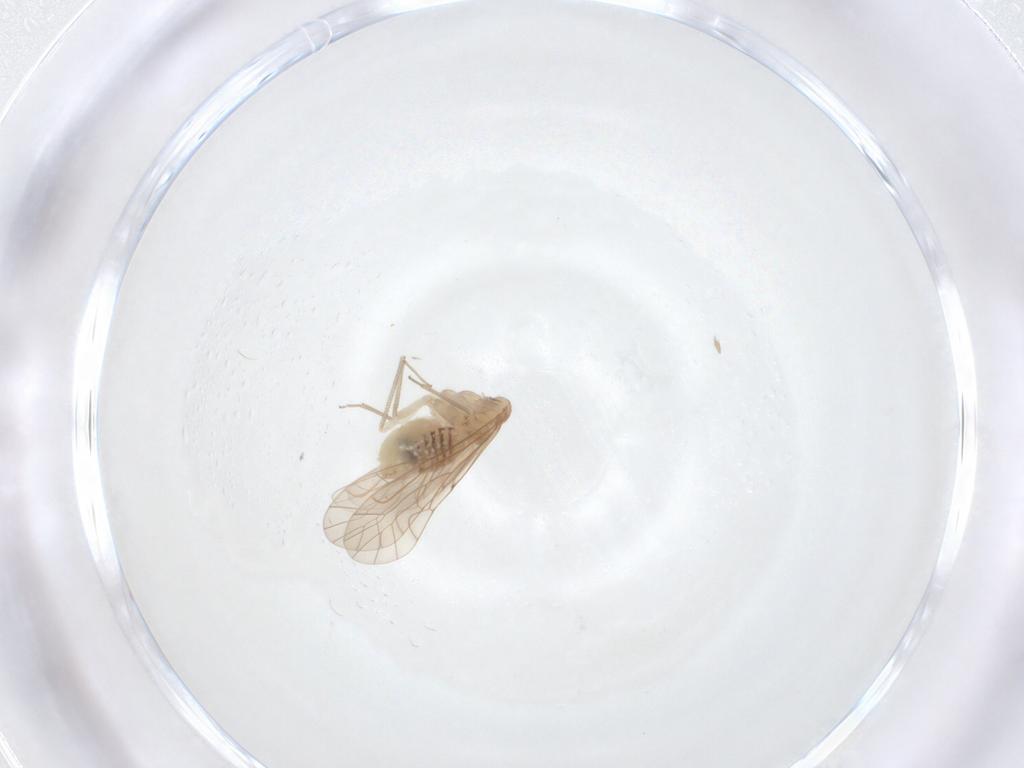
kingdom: Animalia
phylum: Arthropoda
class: Insecta
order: Psocodea
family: Lachesillidae
